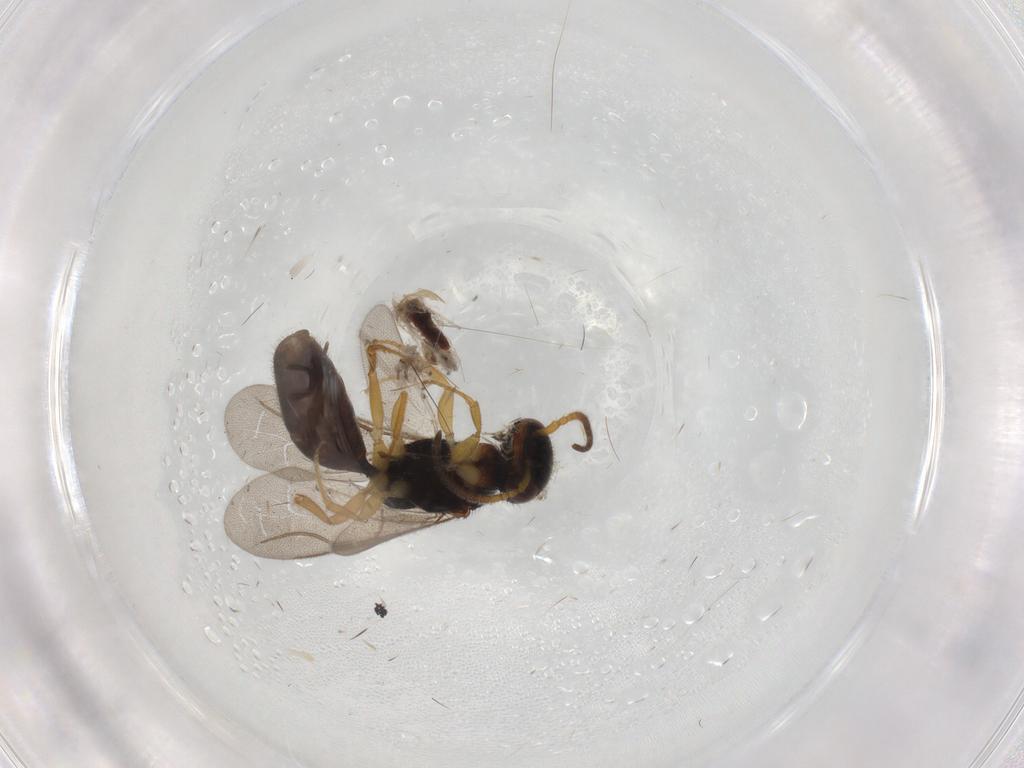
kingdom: Animalia
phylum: Arthropoda
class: Insecta
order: Hymenoptera
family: Bethylidae
